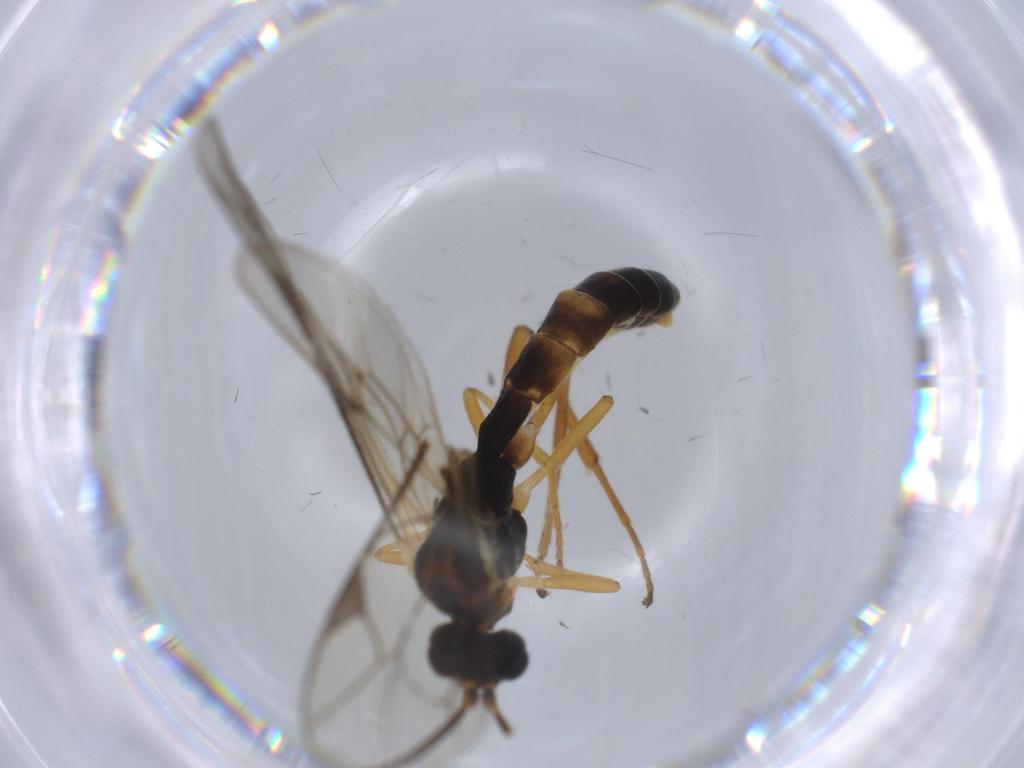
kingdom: Animalia
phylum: Arthropoda
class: Insecta
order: Hymenoptera
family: Ichneumonidae
